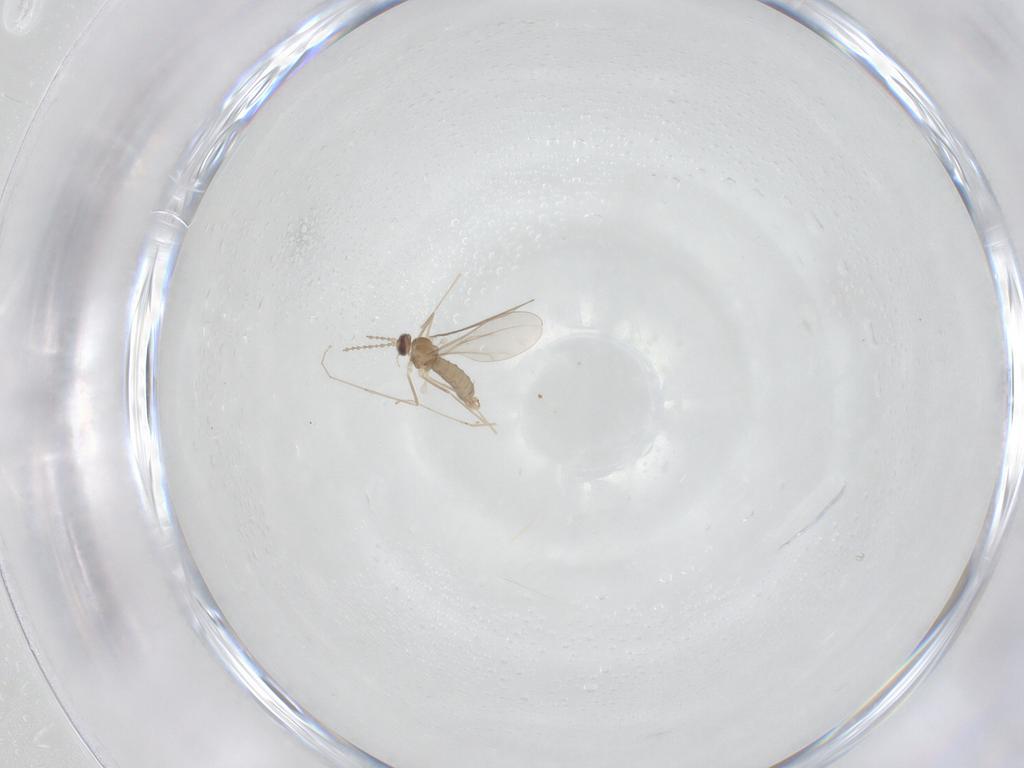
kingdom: Animalia
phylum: Arthropoda
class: Insecta
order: Diptera
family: Cecidomyiidae
